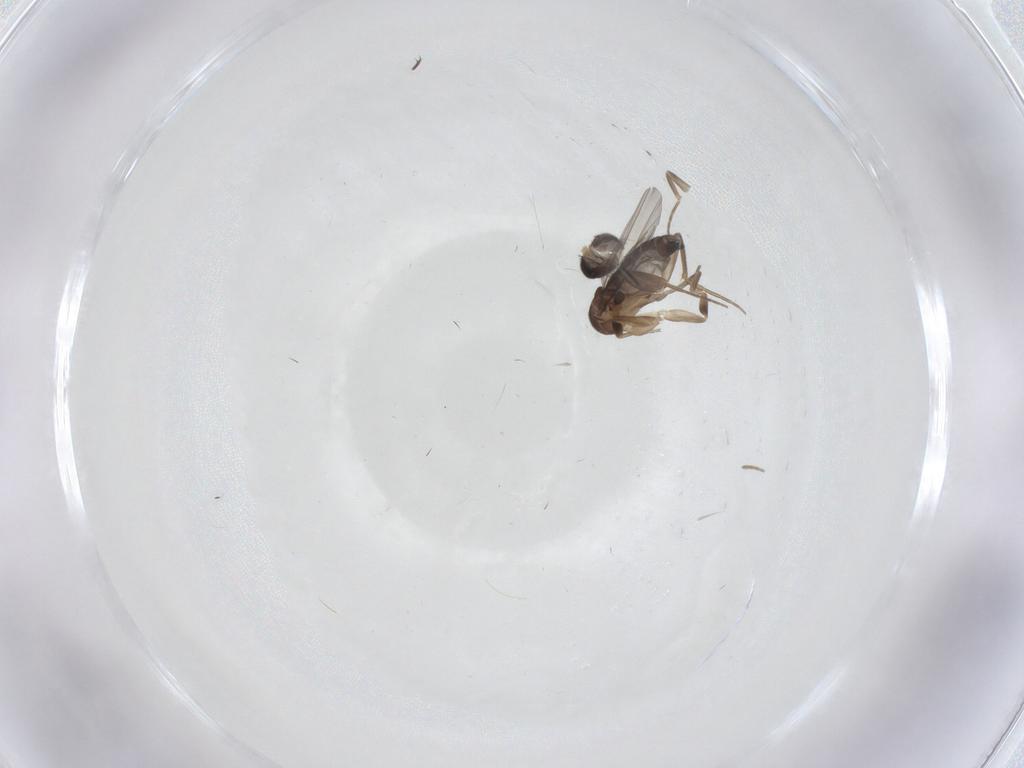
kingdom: Animalia
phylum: Arthropoda
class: Insecta
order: Diptera
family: Phoridae
